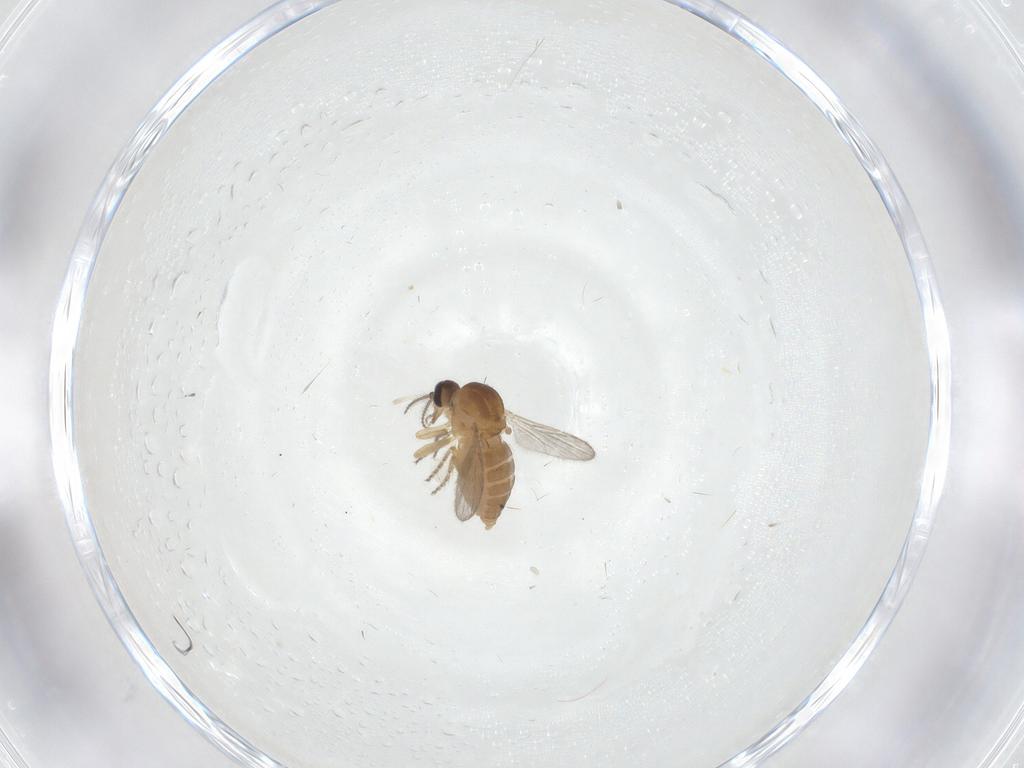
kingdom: Animalia
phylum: Arthropoda
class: Insecta
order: Diptera
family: Ceratopogonidae
